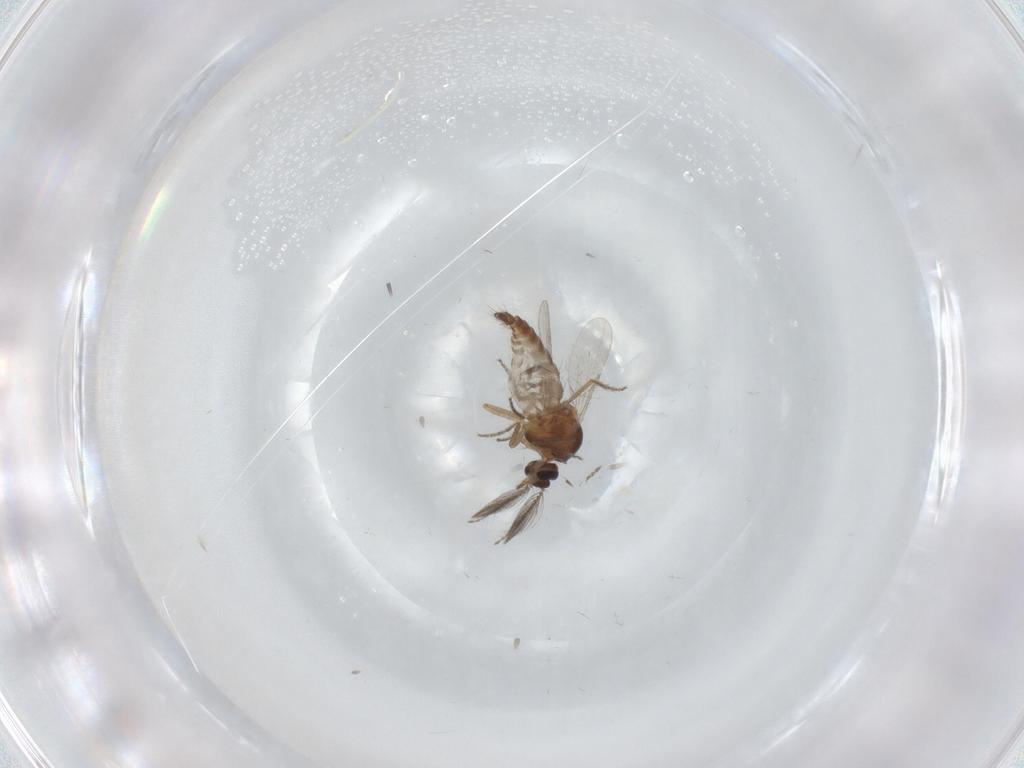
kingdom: Animalia
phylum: Arthropoda
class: Insecta
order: Diptera
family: Ceratopogonidae
